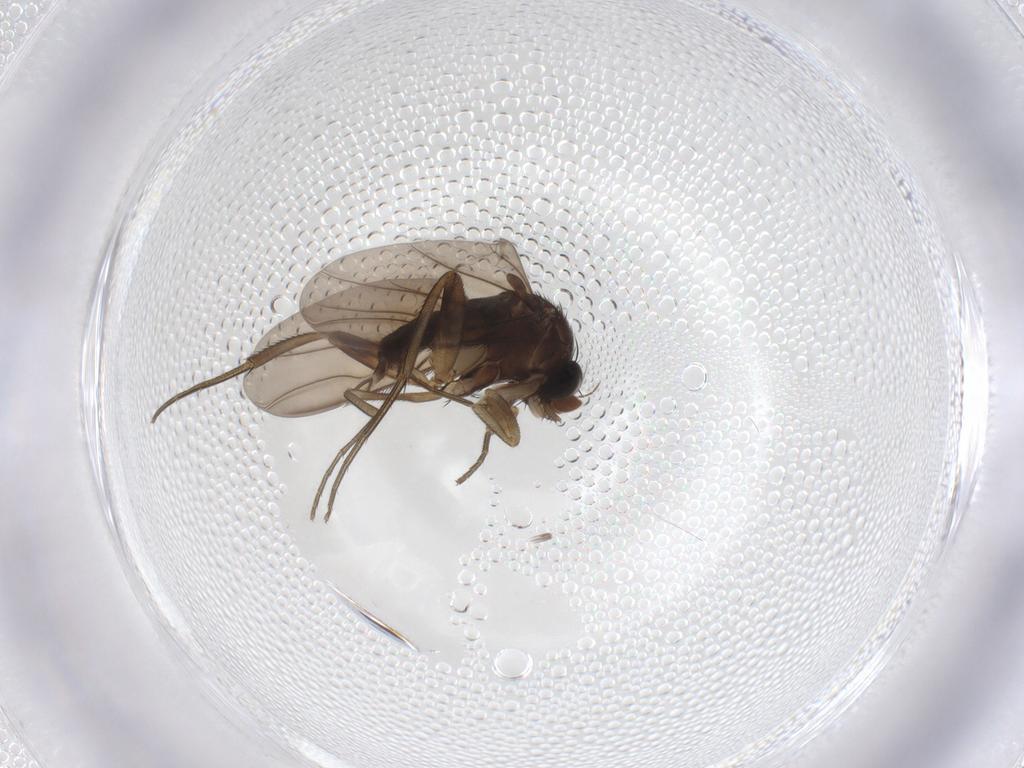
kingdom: Animalia
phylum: Arthropoda
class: Insecta
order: Diptera
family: Phoridae
